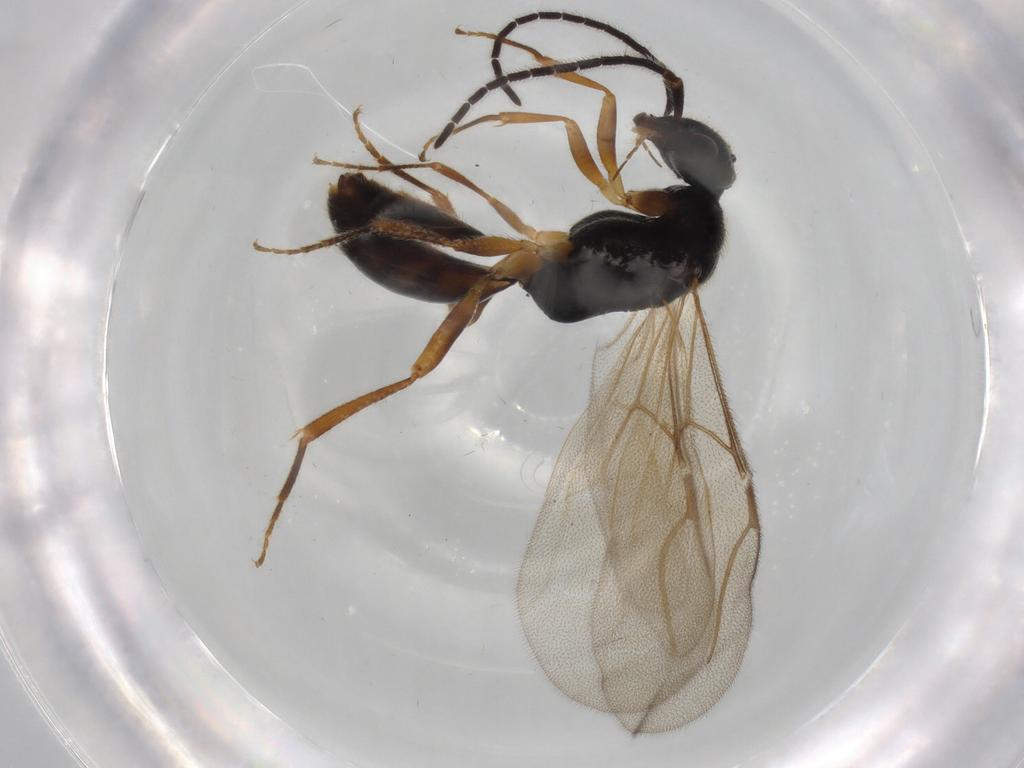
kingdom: Animalia
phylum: Arthropoda
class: Insecta
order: Hymenoptera
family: Bethylidae
